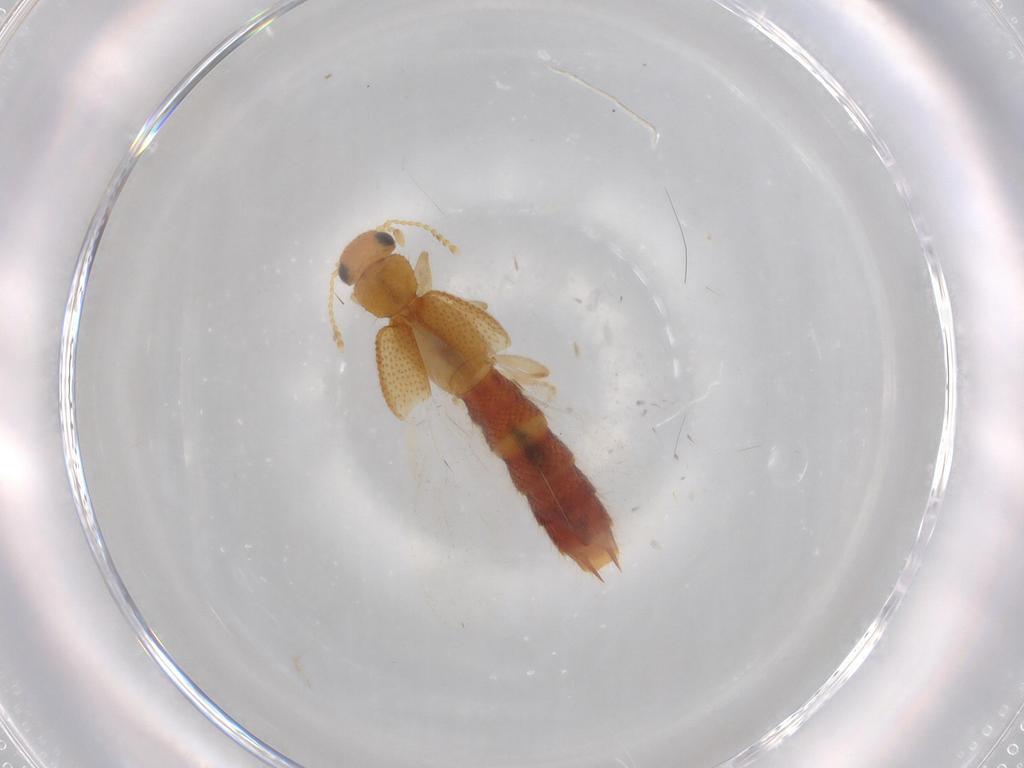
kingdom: Animalia
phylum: Arthropoda
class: Insecta
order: Coleoptera
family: Staphylinidae
